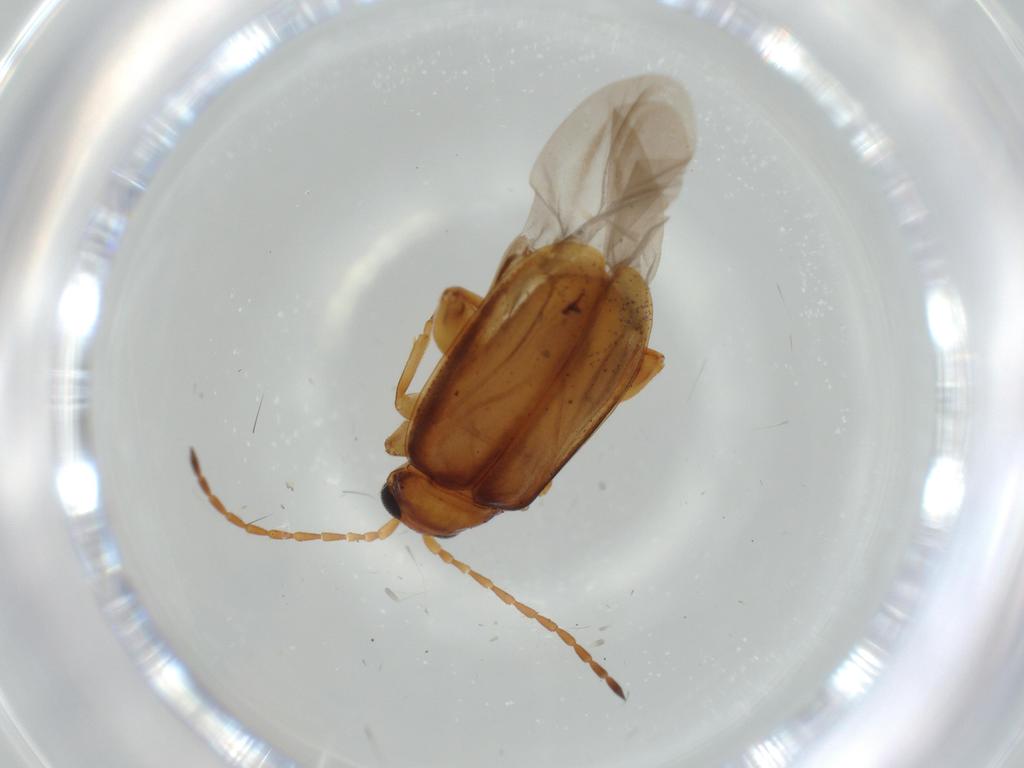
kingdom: Animalia
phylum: Arthropoda
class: Insecta
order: Coleoptera
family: Chrysomelidae
